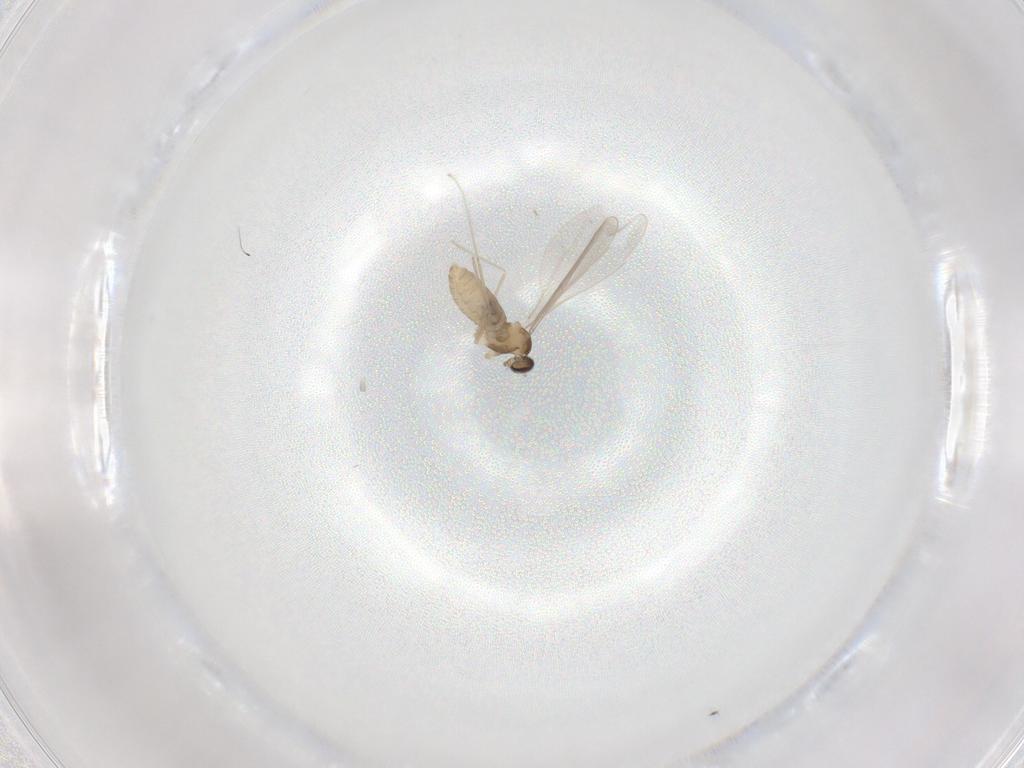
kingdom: Animalia
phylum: Arthropoda
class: Insecta
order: Diptera
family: Cecidomyiidae
